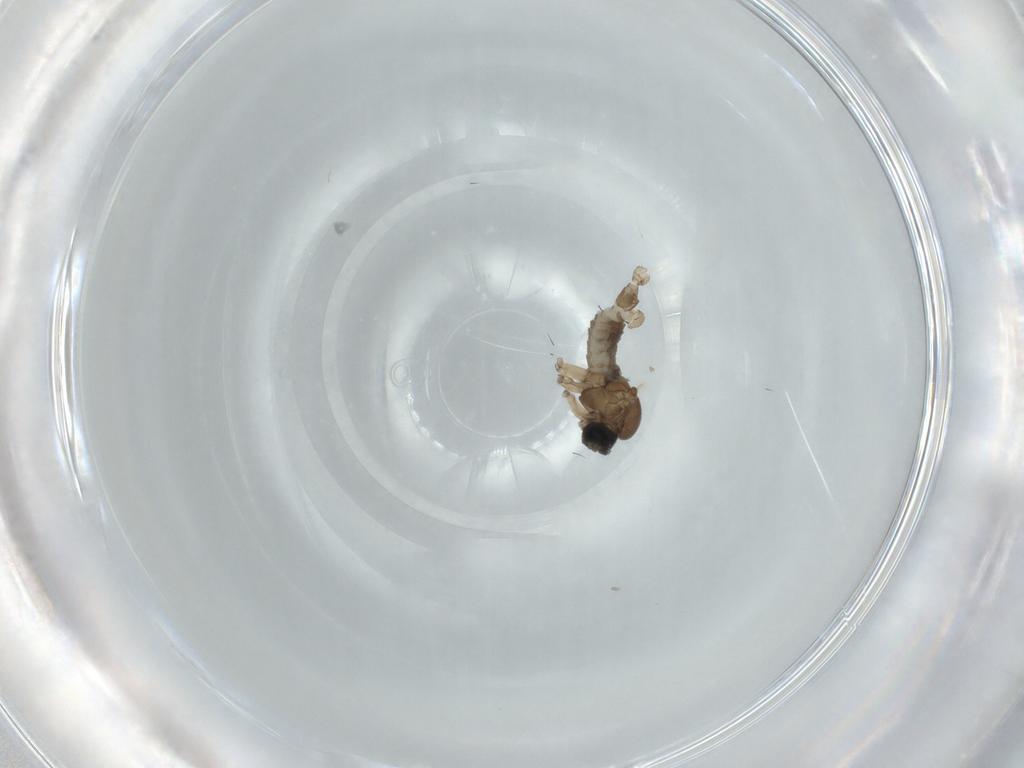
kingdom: Animalia
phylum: Arthropoda
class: Insecta
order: Diptera
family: Sciaridae
